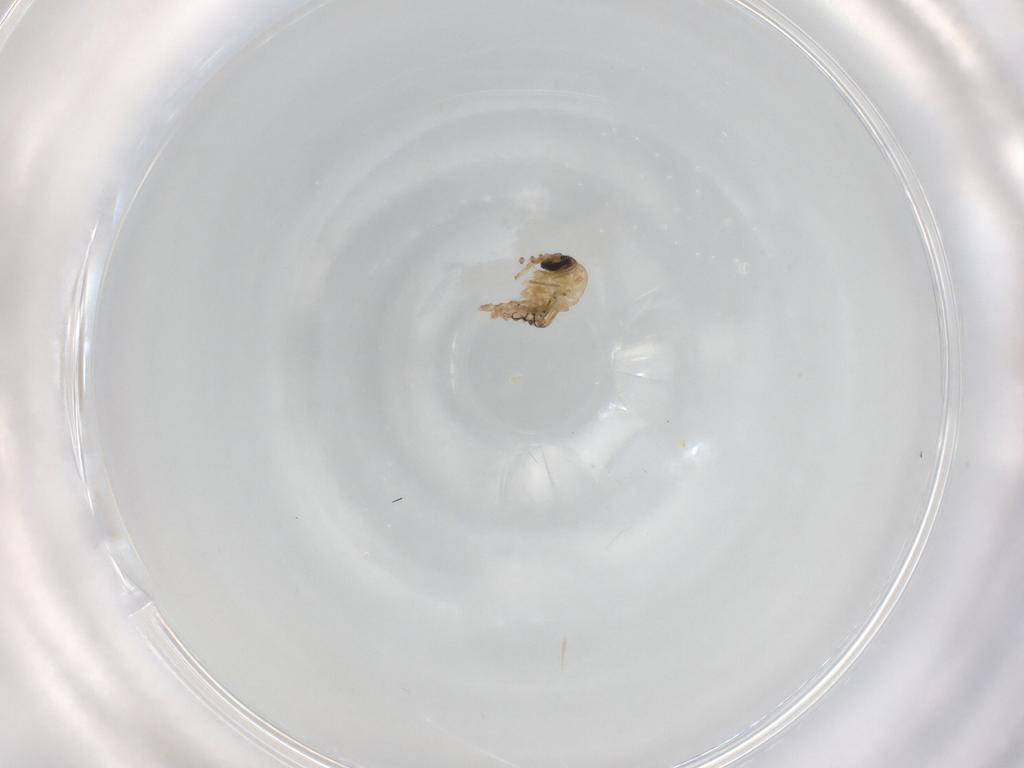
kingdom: Animalia
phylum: Arthropoda
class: Insecta
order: Diptera
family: Psychodidae
